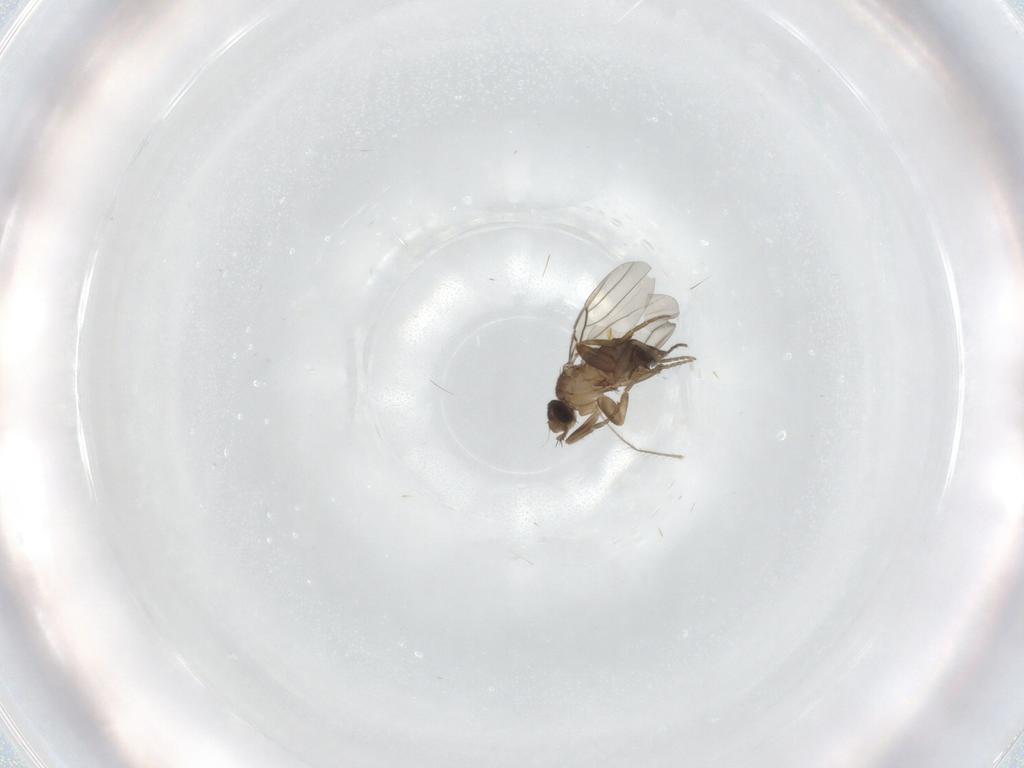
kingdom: Animalia
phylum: Arthropoda
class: Insecta
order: Diptera
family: Phoridae
